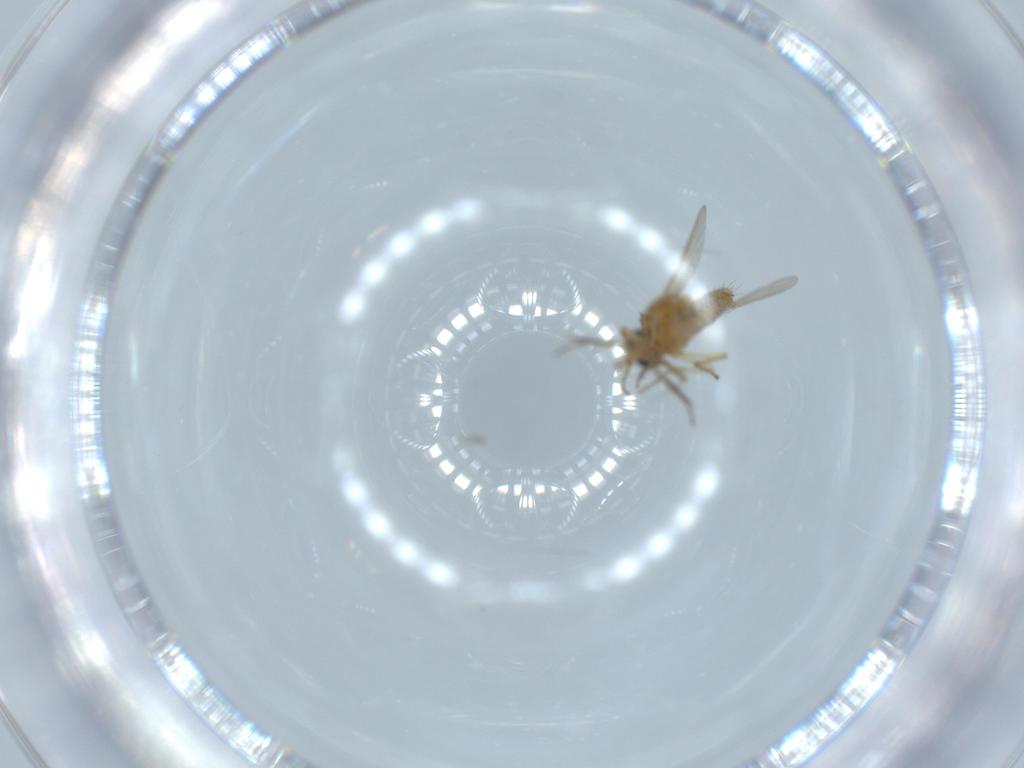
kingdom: Animalia
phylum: Arthropoda
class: Insecta
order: Diptera
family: Ceratopogonidae
